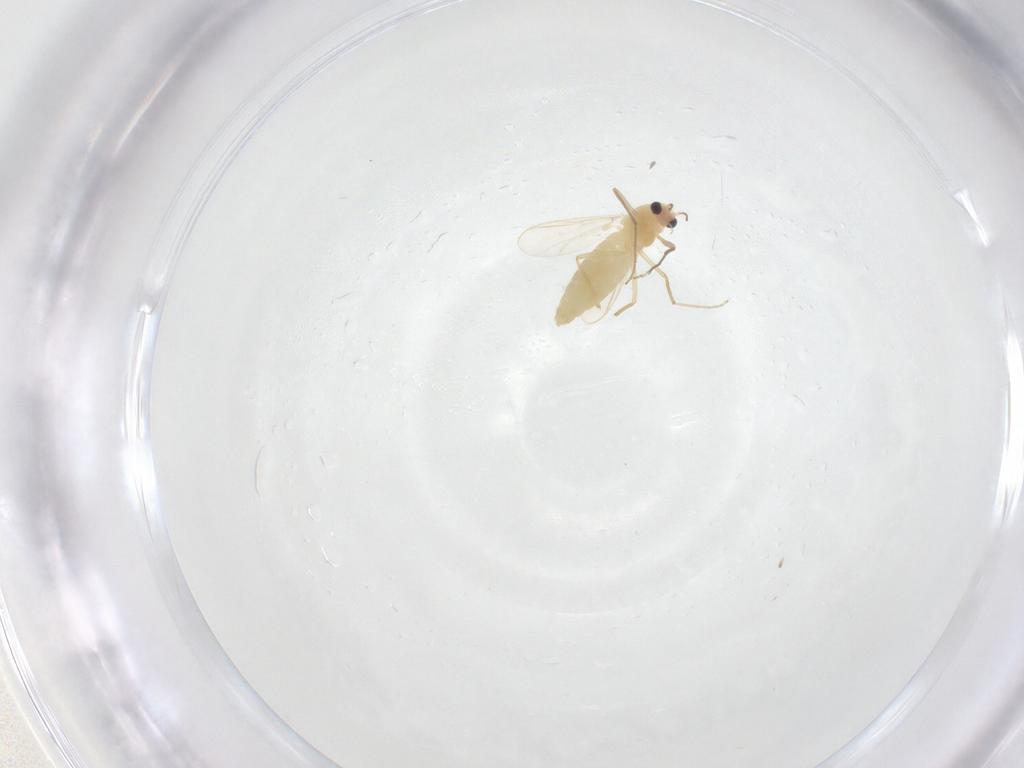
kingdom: Animalia
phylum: Arthropoda
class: Insecta
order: Diptera
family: Chironomidae
